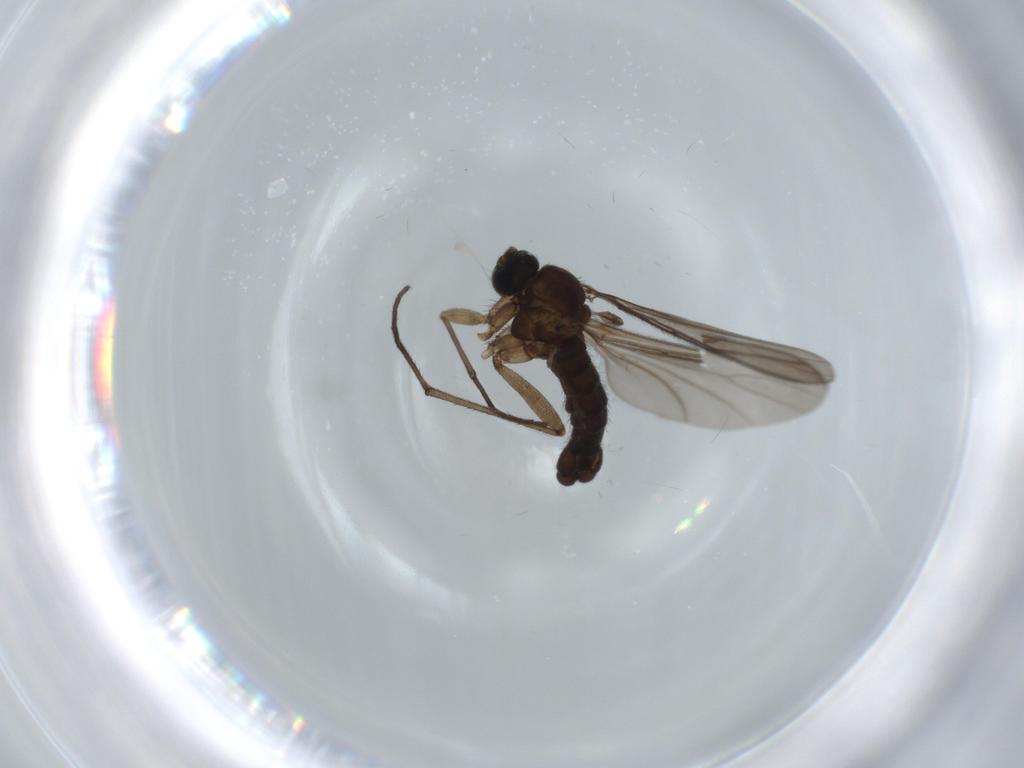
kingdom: Animalia
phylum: Arthropoda
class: Insecta
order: Diptera
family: Sciaridae
